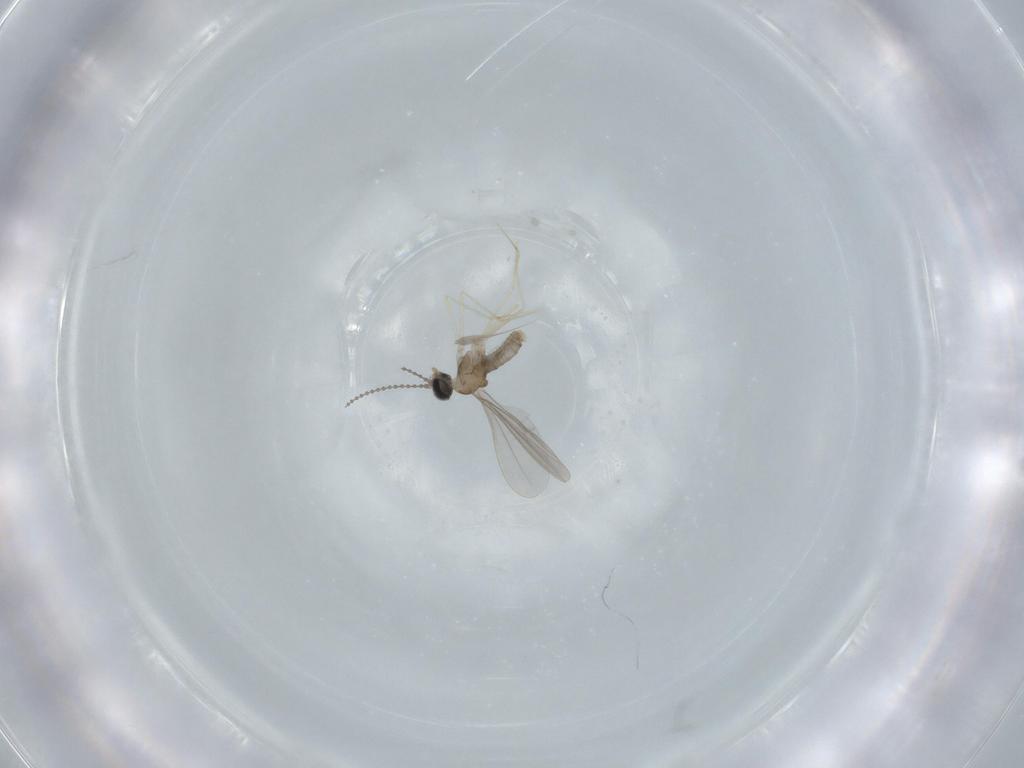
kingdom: Animalia
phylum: Arthropoda
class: Insecta
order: Diptera
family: Cecidomyiidae
